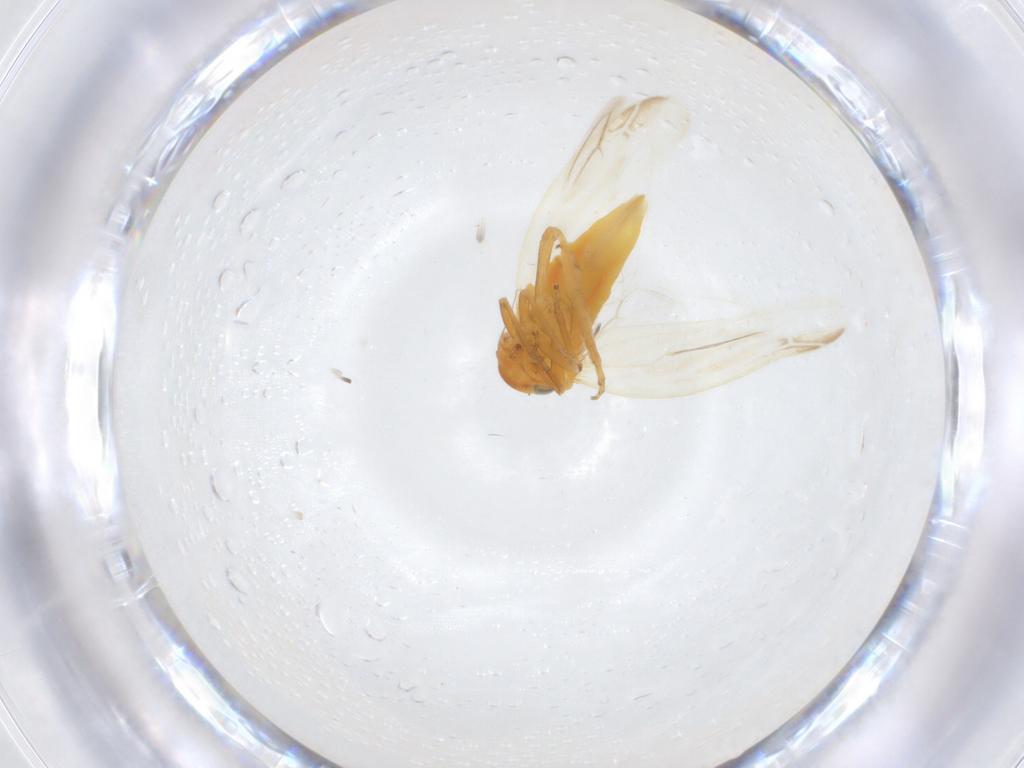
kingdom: Animalia
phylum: Arthropoda
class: Insecta
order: Hemiptera
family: Cicadellidae
